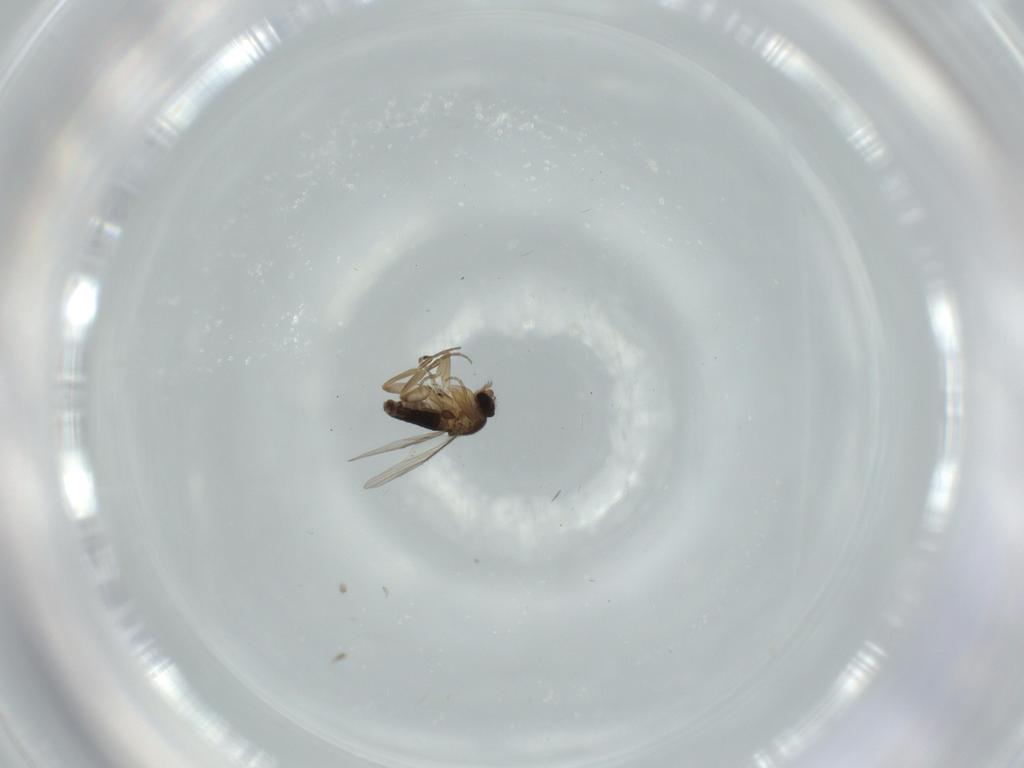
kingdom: Animalia
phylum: Arthropoda
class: Insecta
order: Diptera
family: Phoridae
